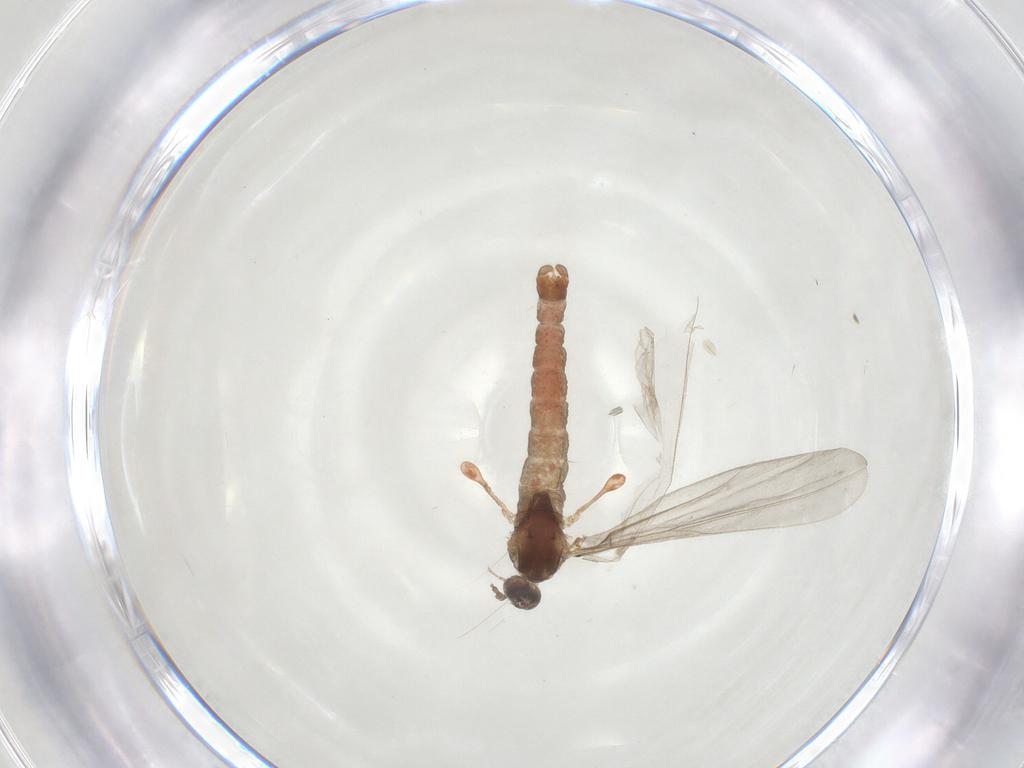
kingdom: Animalia
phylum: Arthropoda
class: Insecta
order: Diptera
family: Cecidomyiidae
